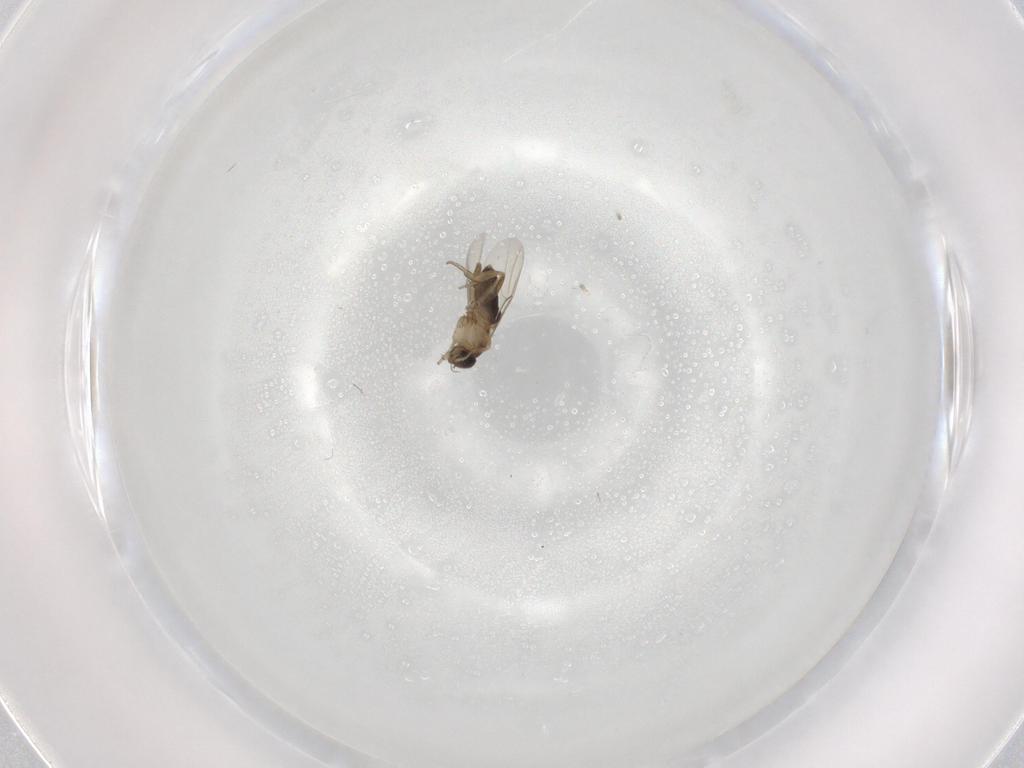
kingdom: Animalia
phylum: Arthropoda
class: Insecta
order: Diptera
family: Phoridae
